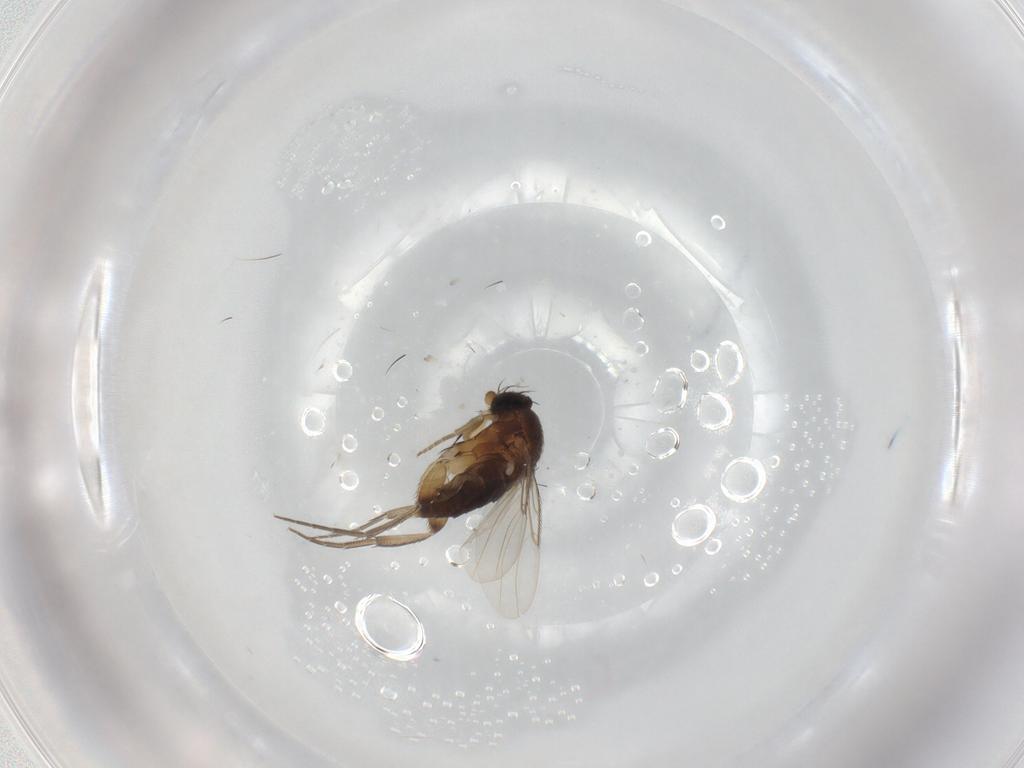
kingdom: Animalia
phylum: Arthropoda
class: Insecta
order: Diptera
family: Phoridae
